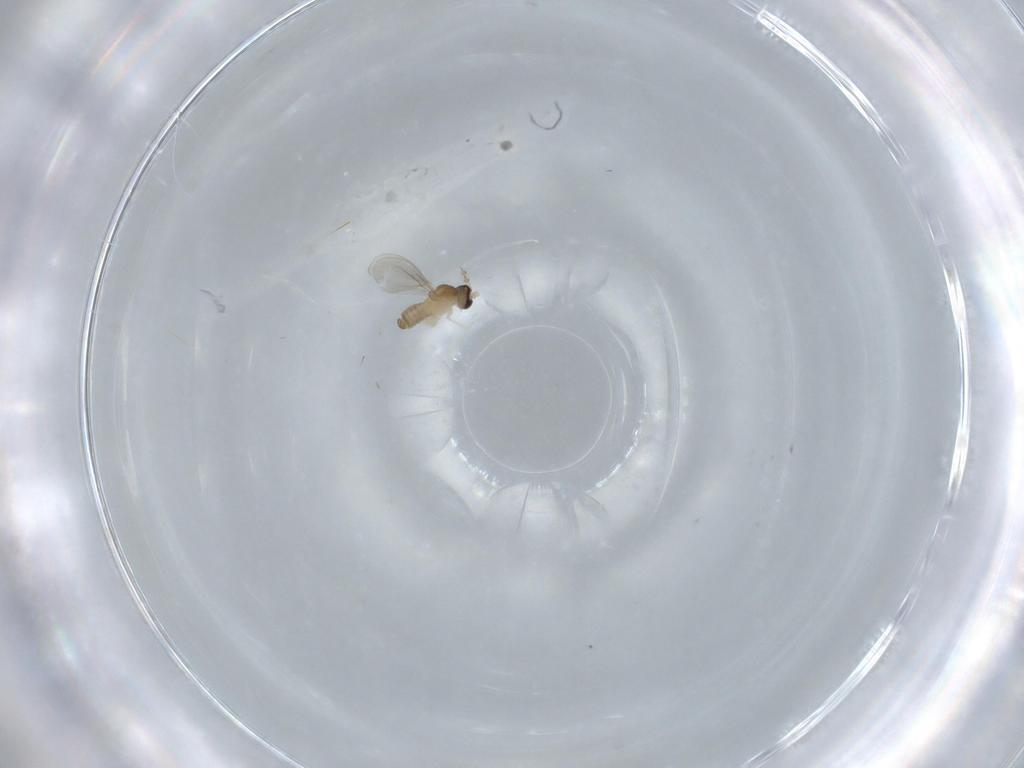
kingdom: Animalia
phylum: Arthropoda
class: Insecta
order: Diptera
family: Cecidomyiidae
